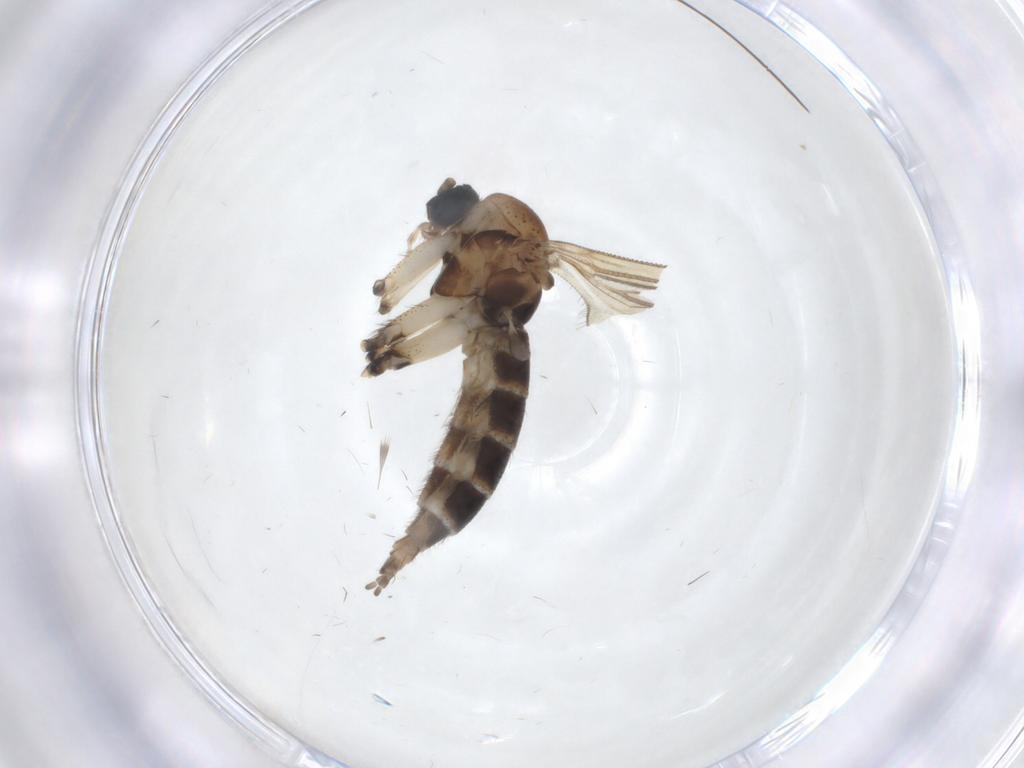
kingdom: Animalia
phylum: Arthropoda
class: Insecta
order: Diptera
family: Sciaridae
